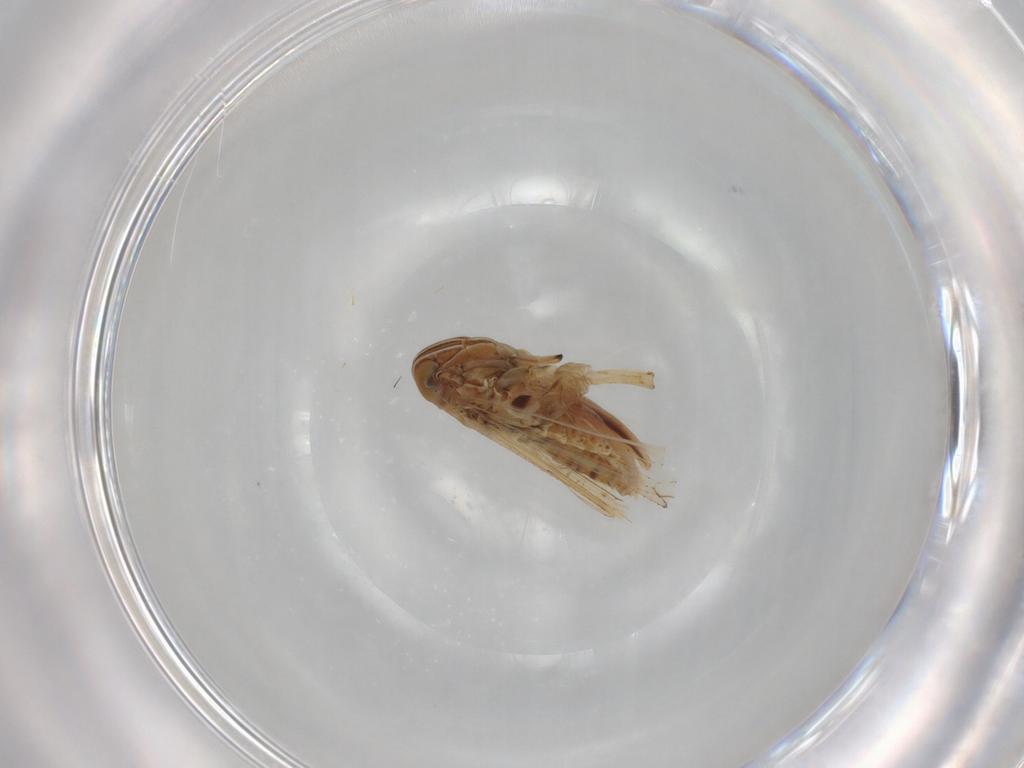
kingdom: Animalia
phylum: Arthropoda
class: Insecta
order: Hemiptera
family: Delphacidae
